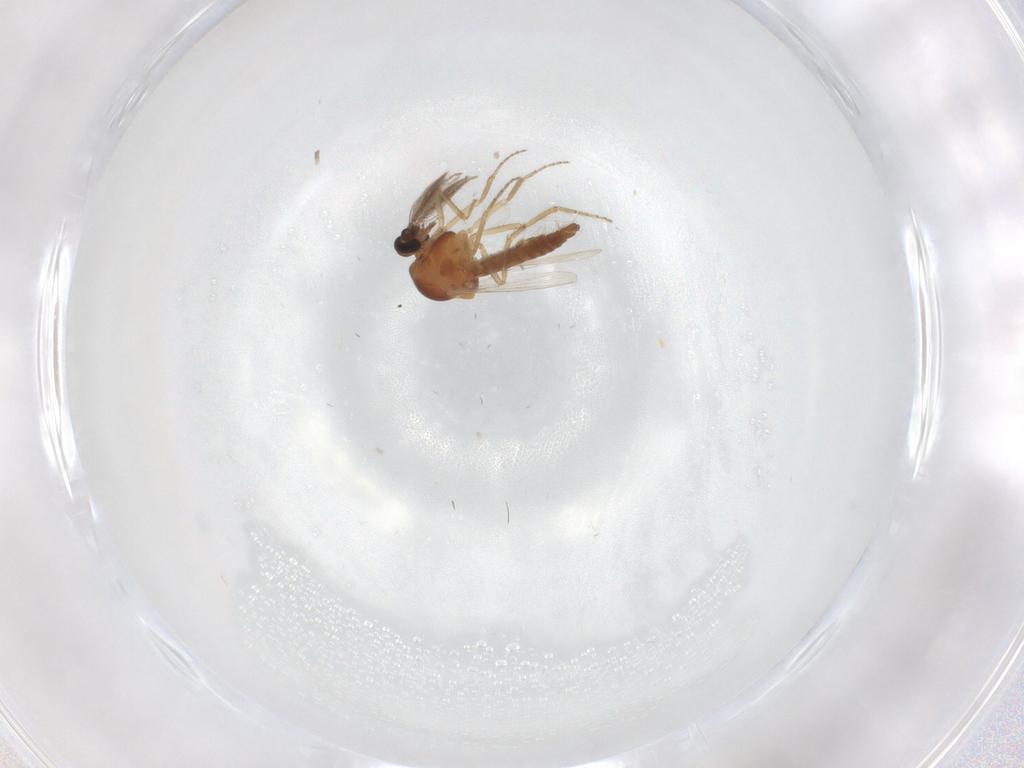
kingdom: Animalia
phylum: Arthropoda
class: Insecta
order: Diptera
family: Ceratopogonidae
